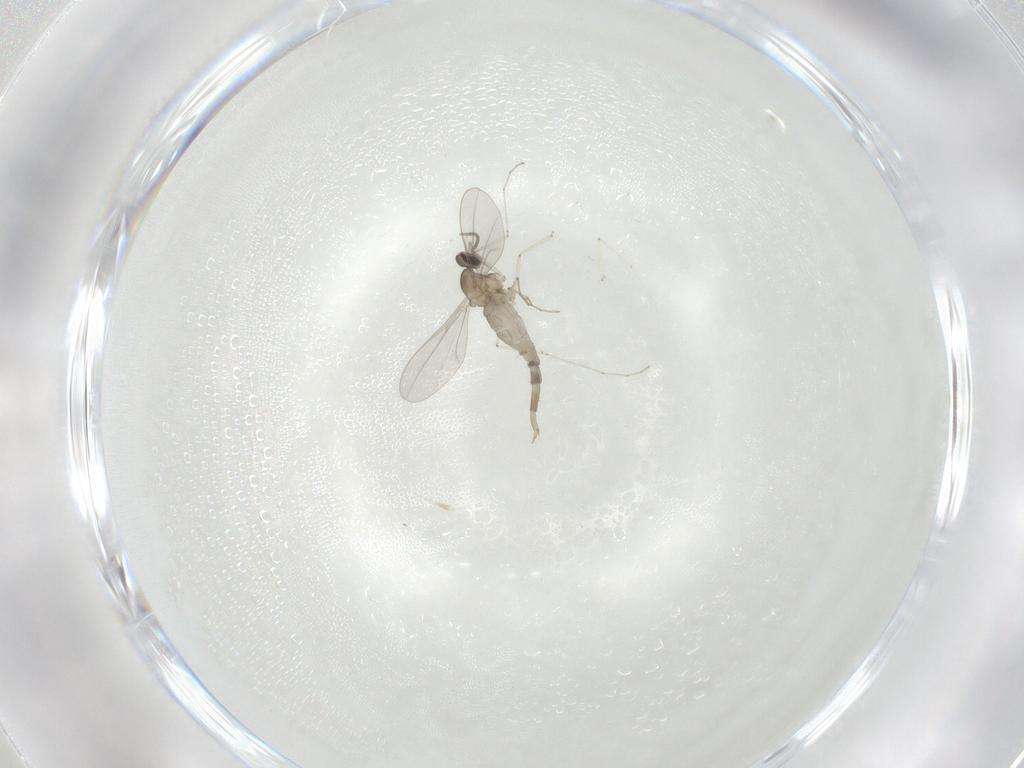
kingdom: Animalia
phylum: Arthropoda
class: Insecta
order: Diptera
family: Cecidomyiidae
